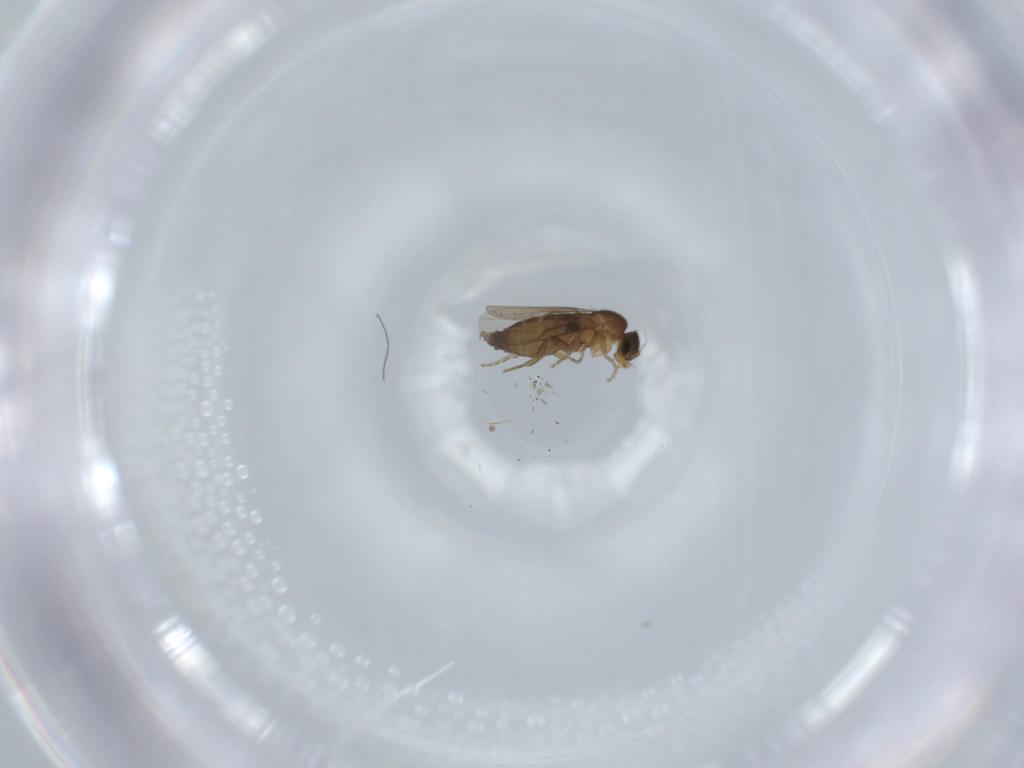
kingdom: Animalia
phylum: Arthropoda
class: Insecta
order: Diptera
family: Phoridae
